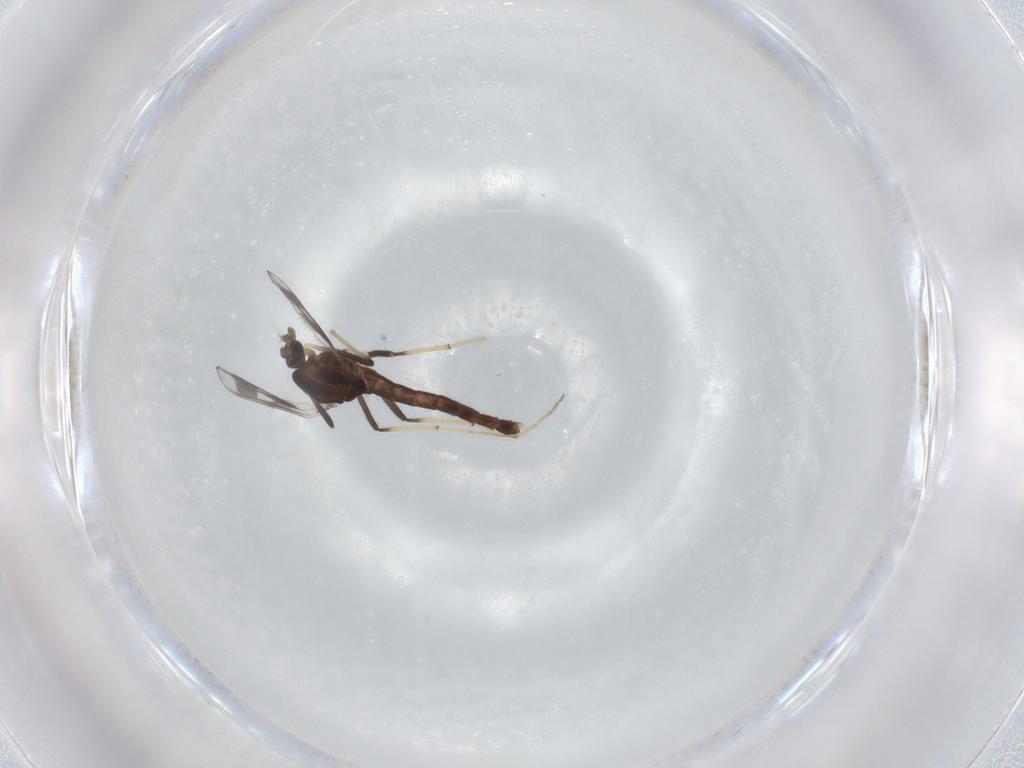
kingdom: Animalia
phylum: Arthropoda
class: Insecta
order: Diptera
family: Chironomidae
